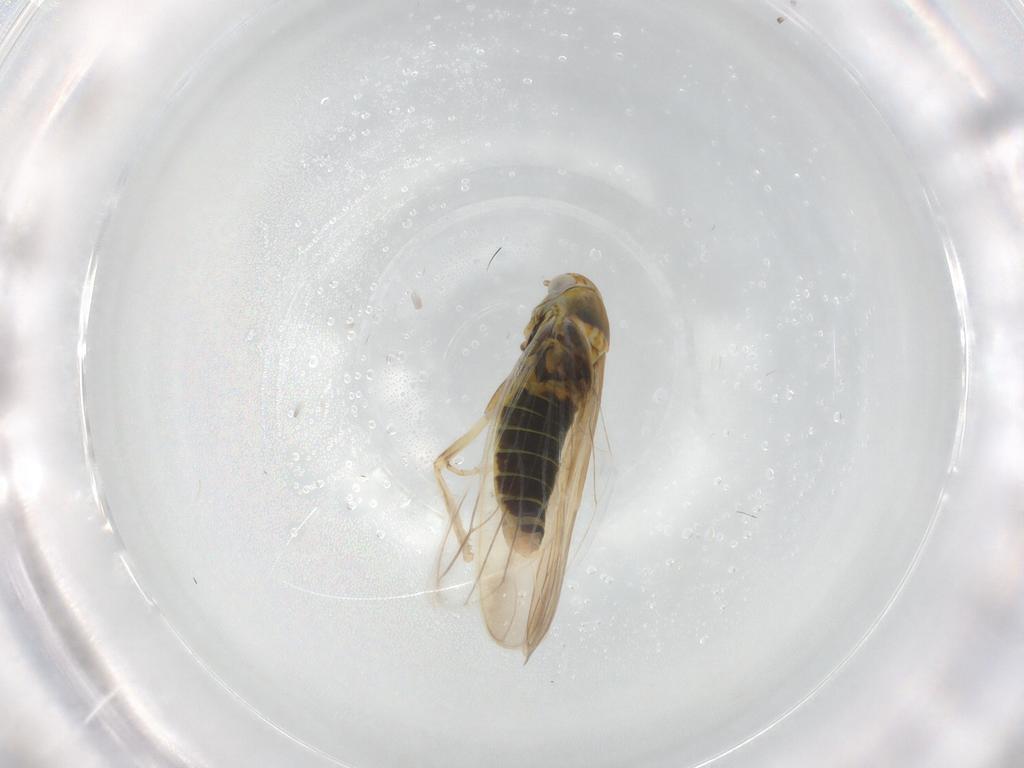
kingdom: Animalia
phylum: Arthropoda
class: Insecta
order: Hemiptera
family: Cicadellidae
